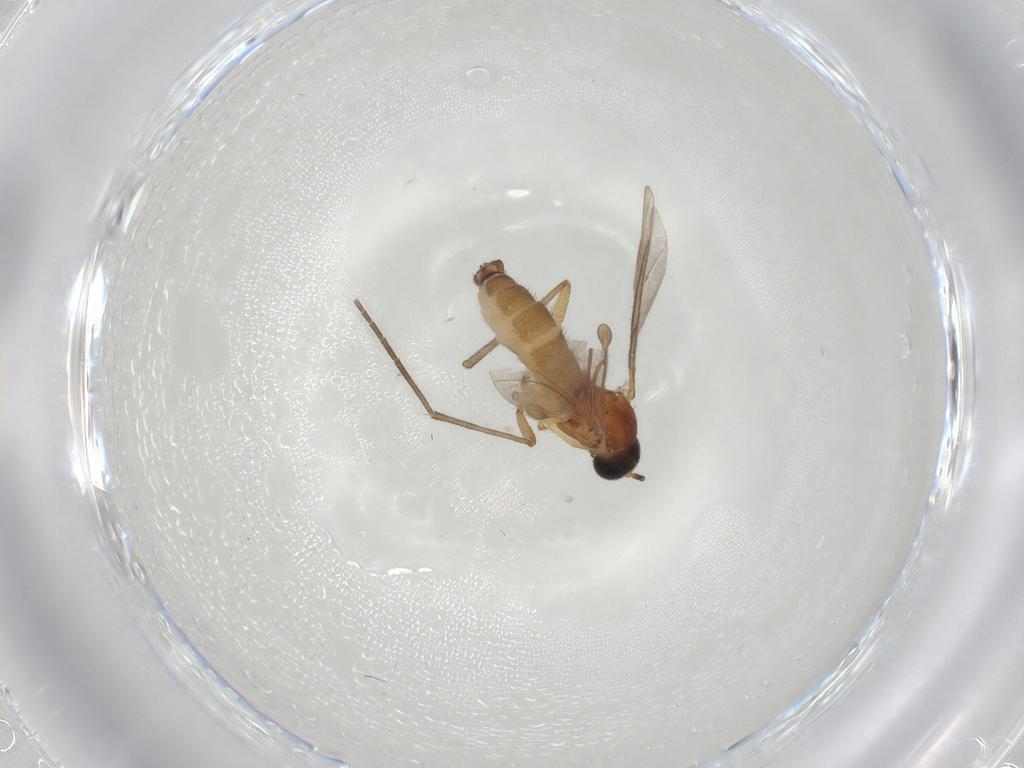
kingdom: Animalia
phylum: Arthropoda
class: Insecta
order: Diptera
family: Sciaridae
